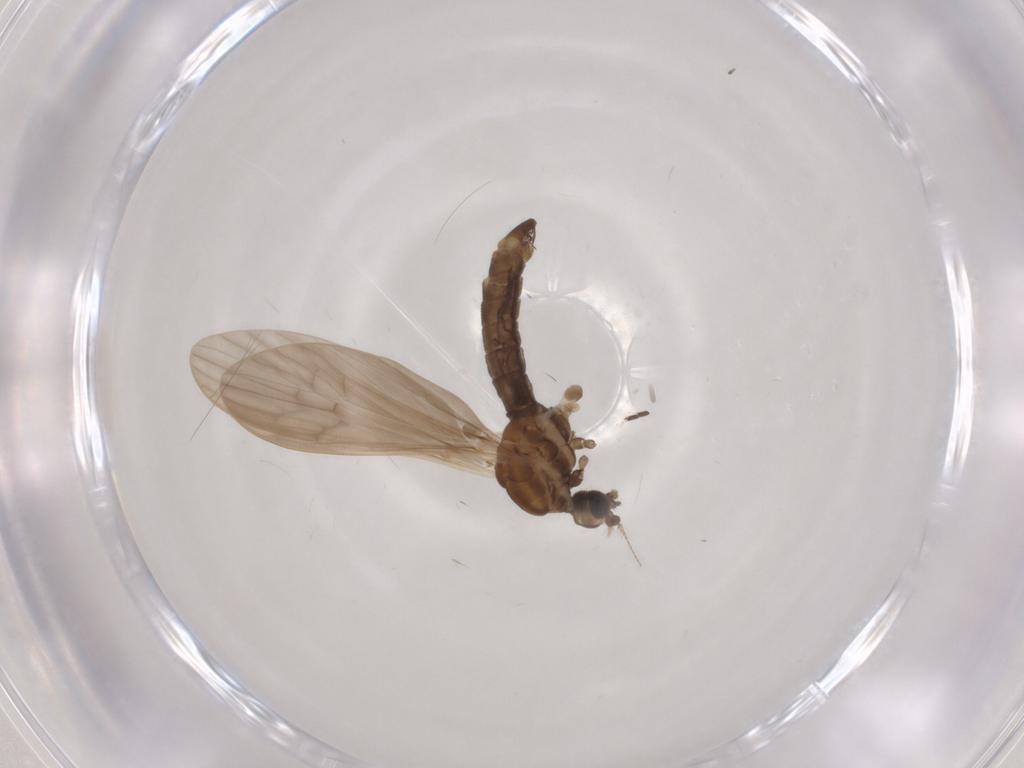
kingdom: Animalia
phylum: Arthropoda
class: Insecta
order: Diptera
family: Limoniidae
